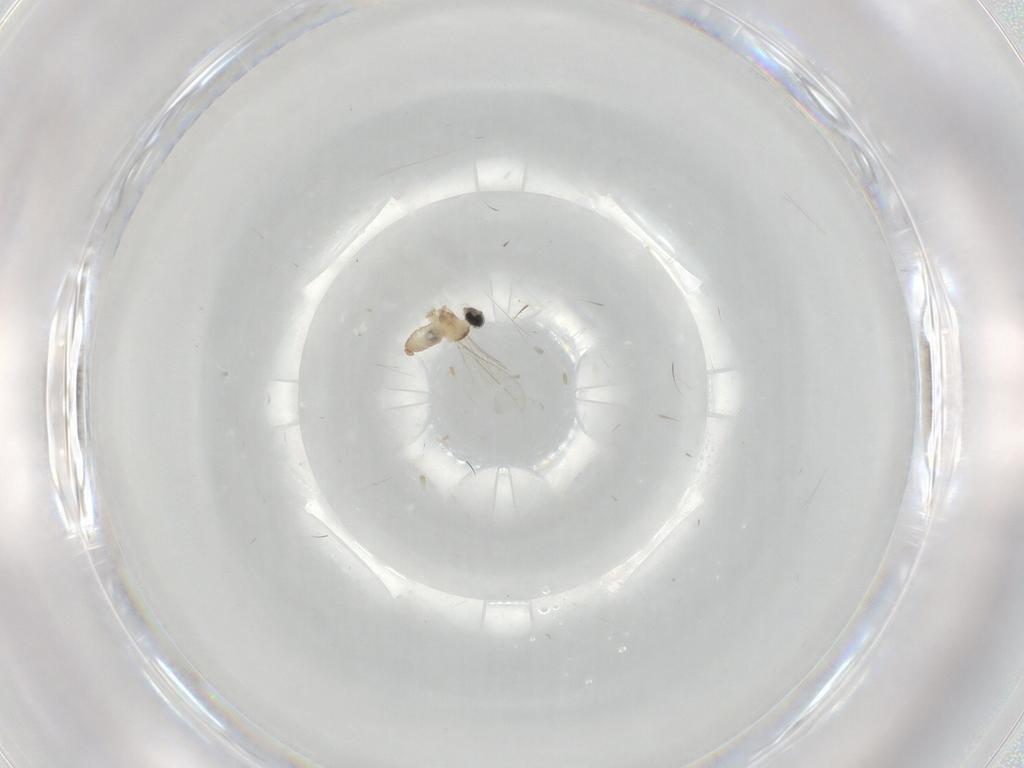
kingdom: Animalia
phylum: Arthropoda
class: Insecta
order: Diptera
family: Cecidomyiidae
